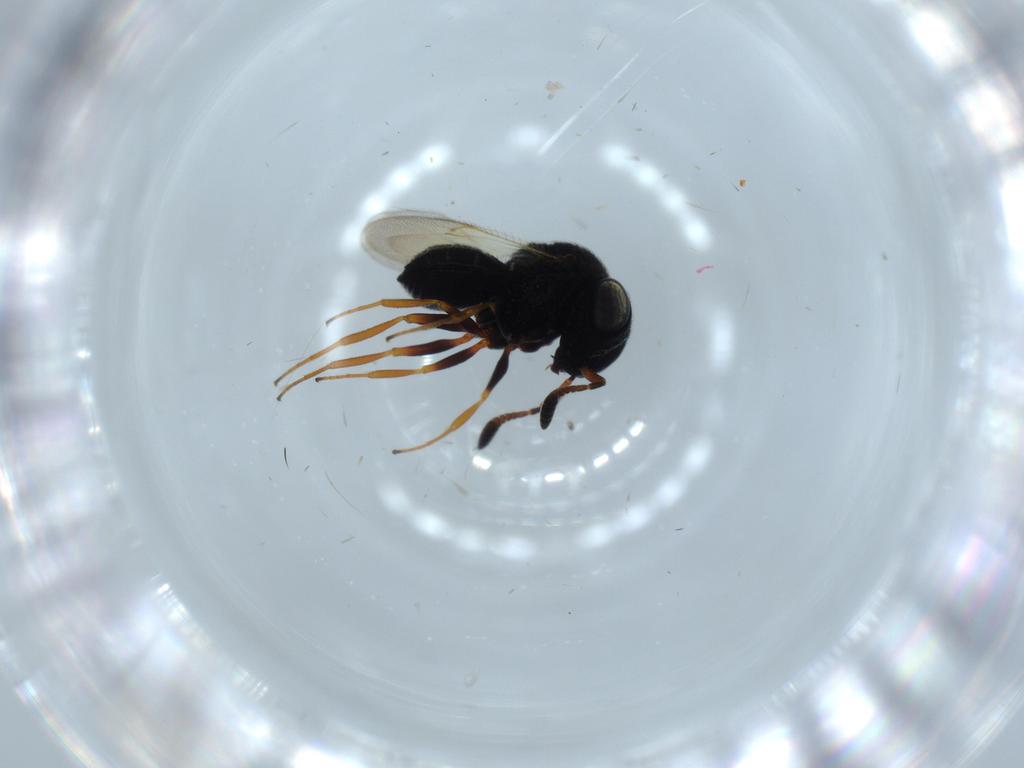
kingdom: Animalia
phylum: Arthropoda
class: Insecta
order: Hymenoptera
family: Scelionidae
